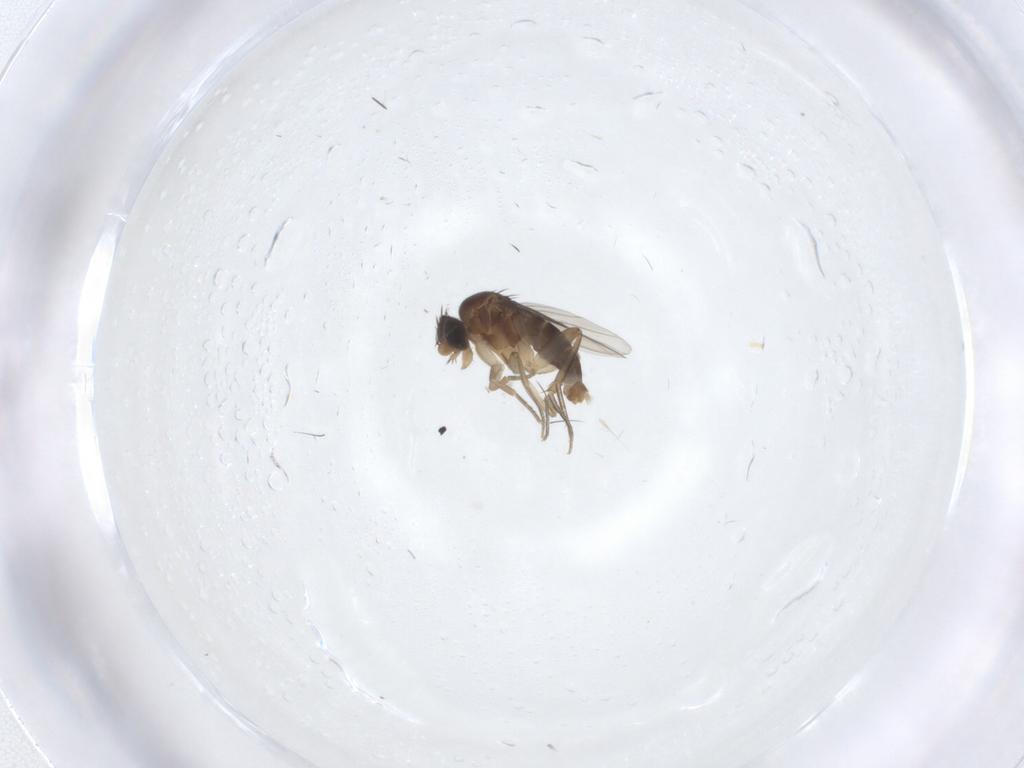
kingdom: Animalia
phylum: Arthropoda
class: Insecta
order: Diptera
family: Phoridae
